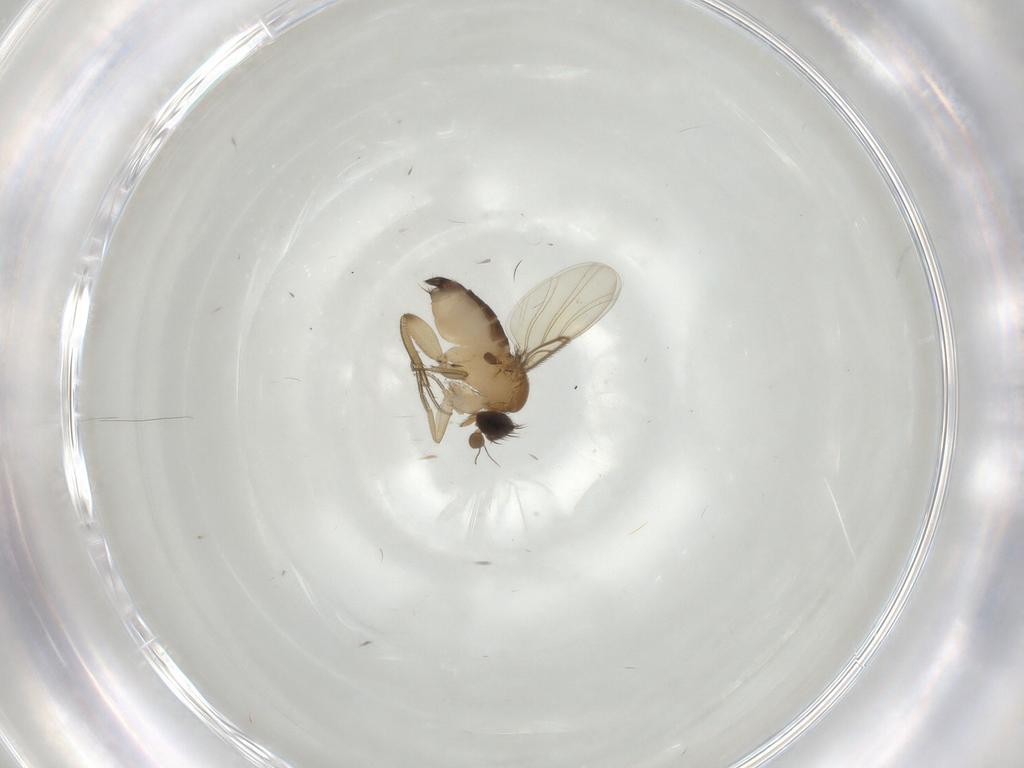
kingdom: Animalia
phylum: Arthropoda
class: Insecta
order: Diptera
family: Phoridae
